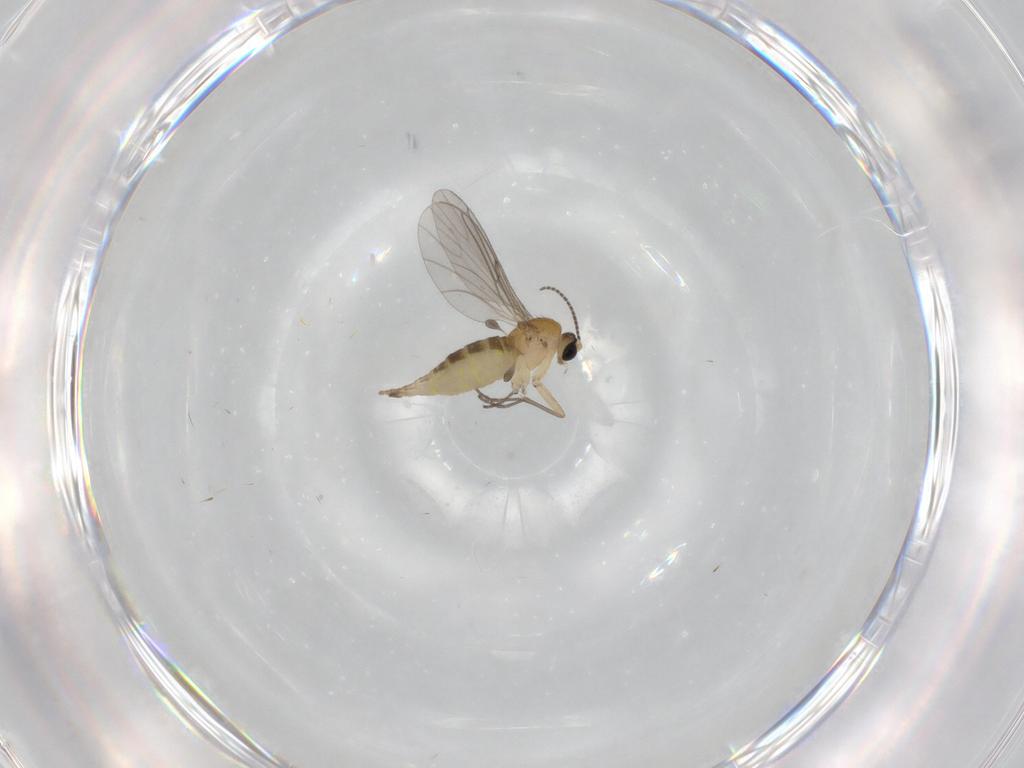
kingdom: Animalia
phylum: Arthropoda
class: Insecta
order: Diptera
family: Sciaridae
